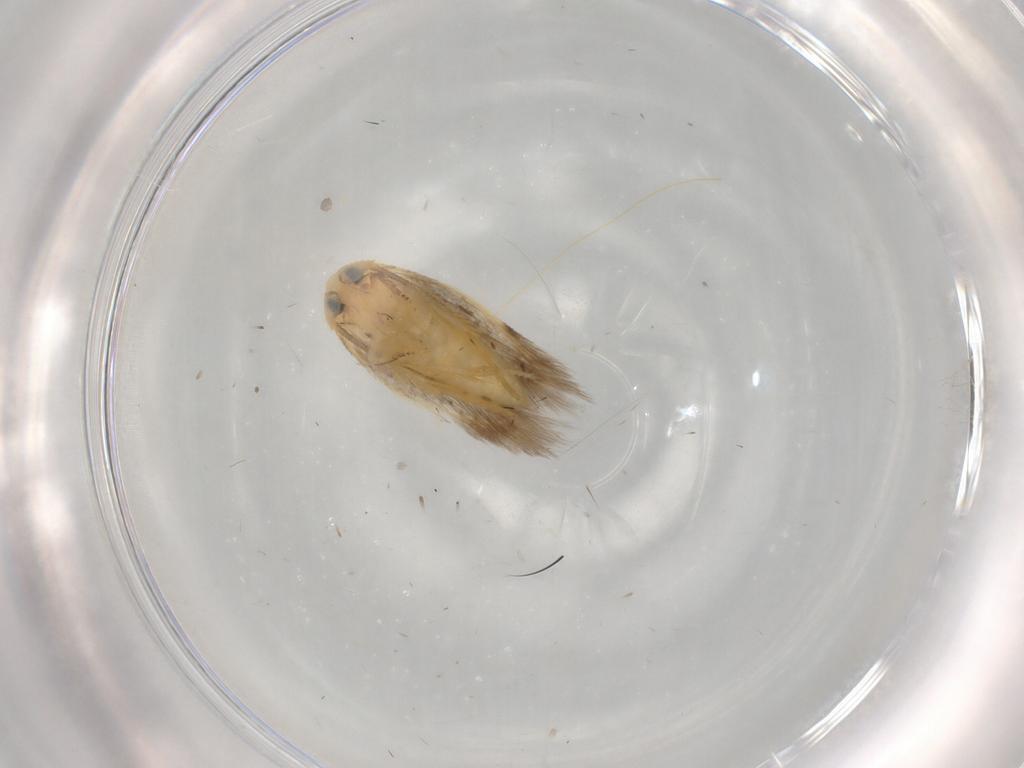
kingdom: Animalia
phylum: Arthropoda
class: Insecta
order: Lepidoptera
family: Opostegidae
